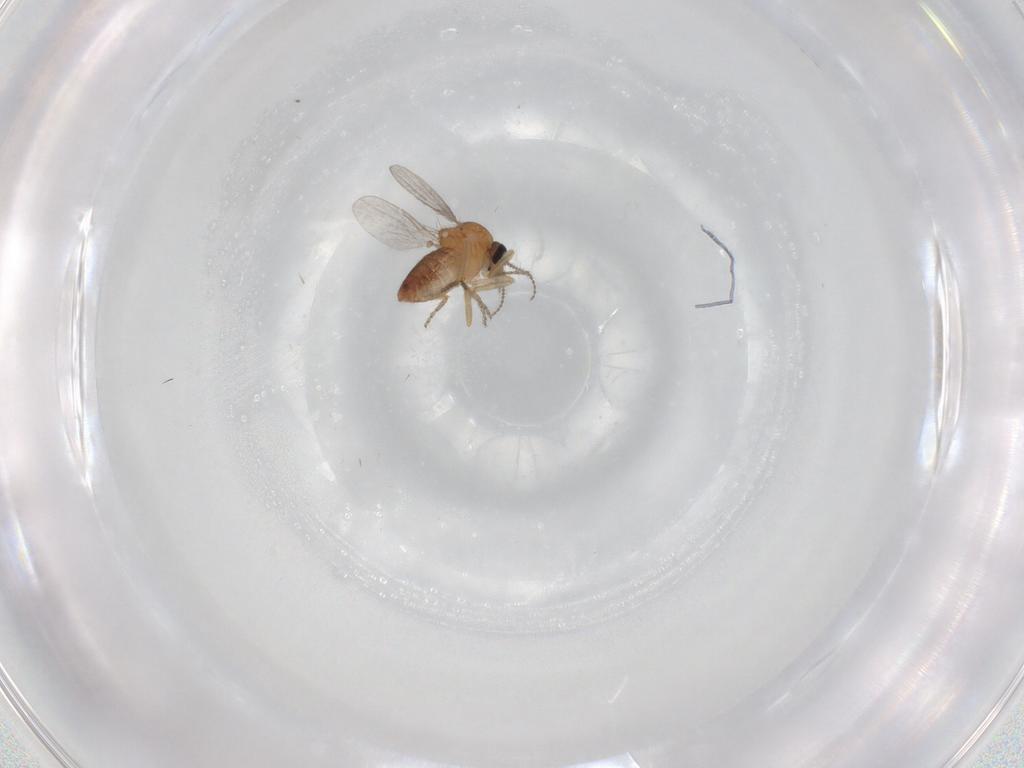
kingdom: Animalia
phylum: Arthropoda
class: Insecta
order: Diptera
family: Ceratopogonidae
